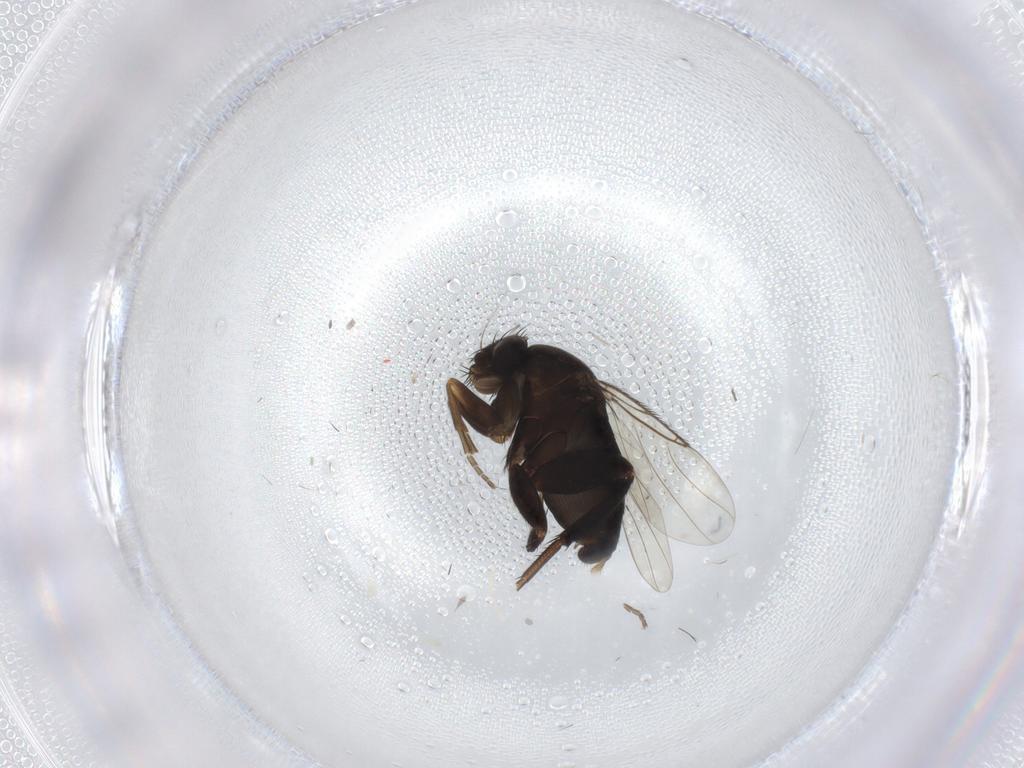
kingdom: Animalia
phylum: Arthropoda
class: Insecta
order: Diptera
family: Phoridae
